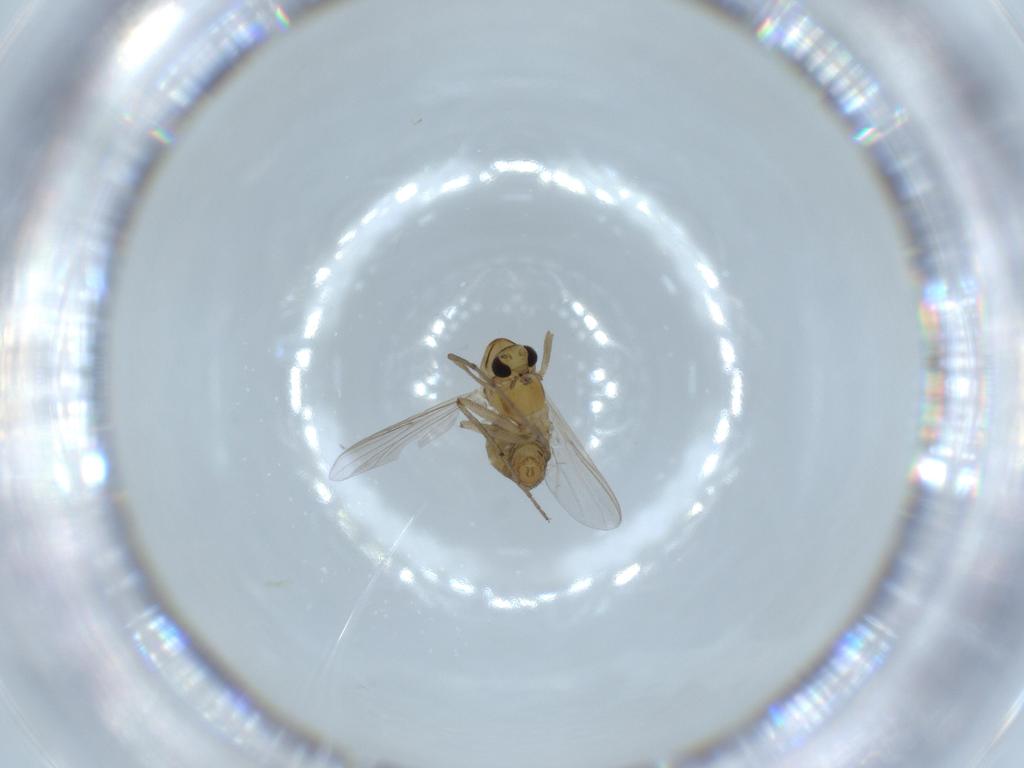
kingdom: Animalia
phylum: Arthropoda
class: Insecta
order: Diptera
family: Chironomidae
